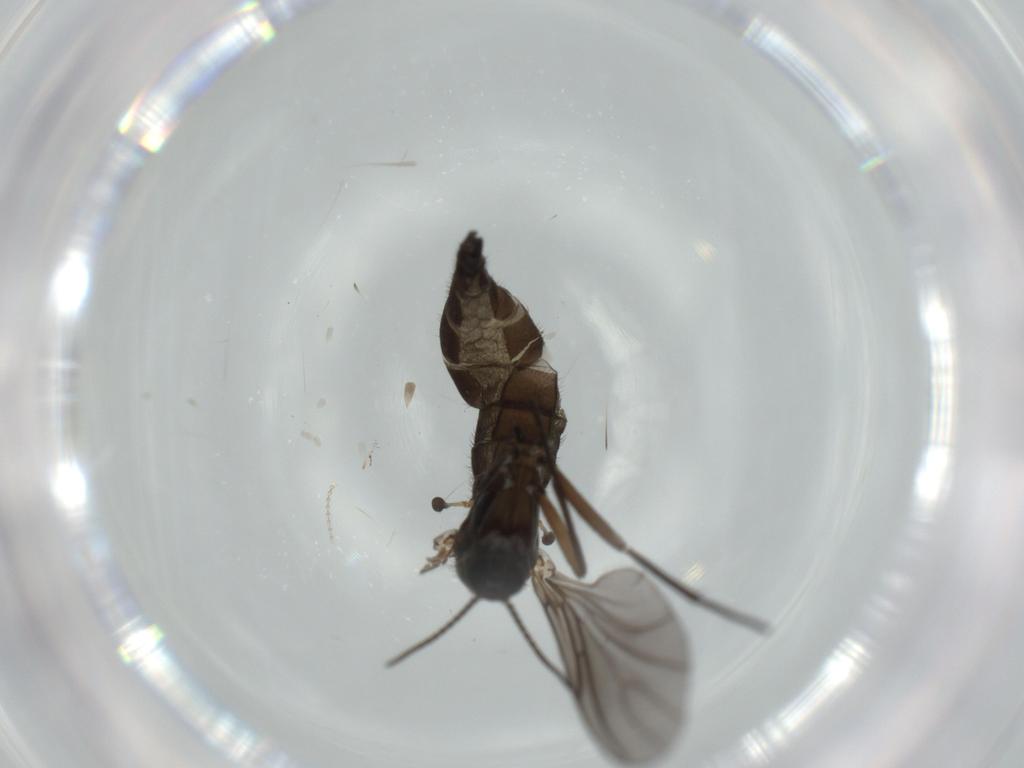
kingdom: Animalia
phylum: Arthropoda
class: Insecta
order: Diptera
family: Sciaridae
